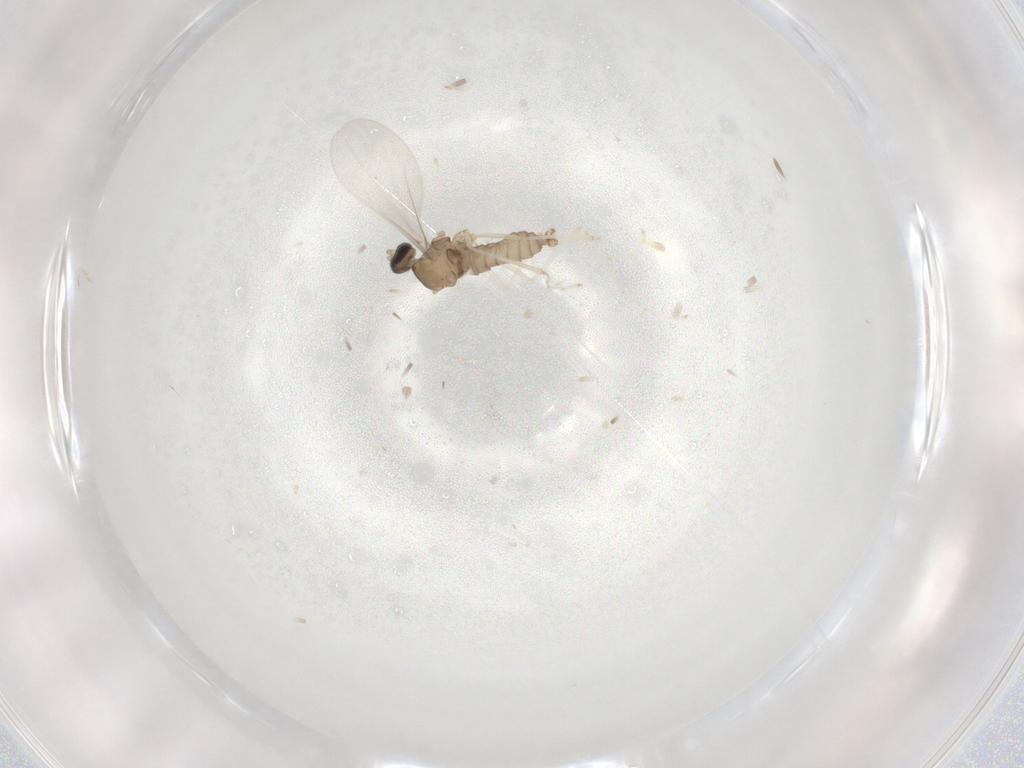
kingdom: Animalia
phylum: Arthropoda
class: Insecta
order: Diptera
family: Cecidomyiidae
